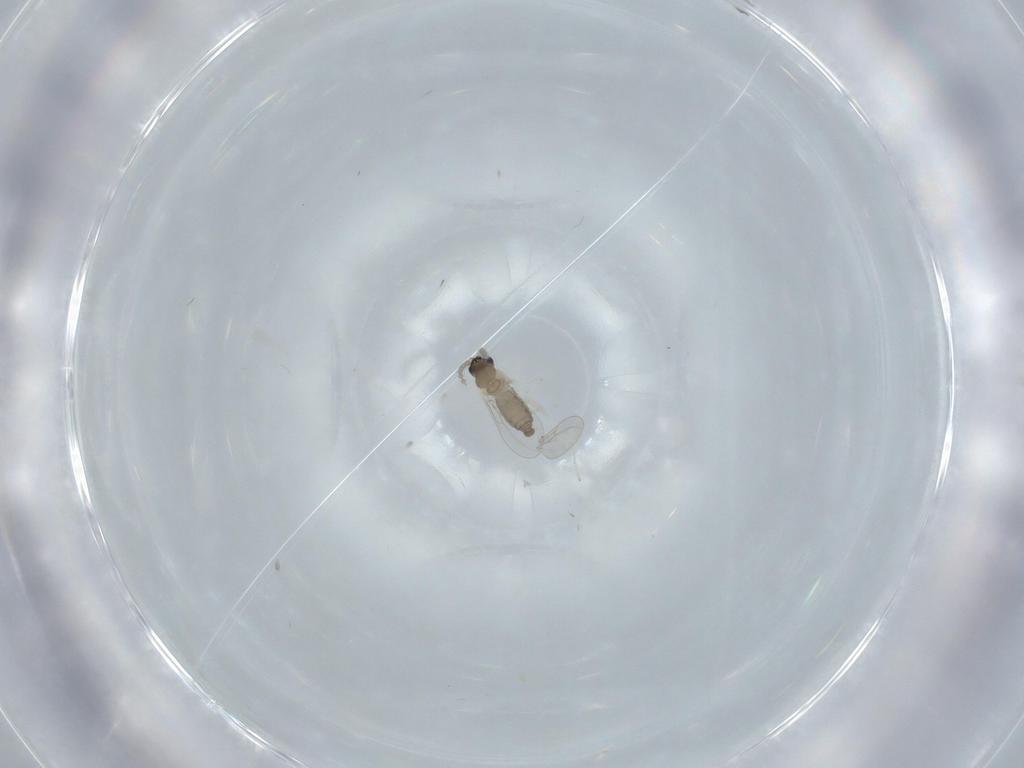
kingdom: Animalia
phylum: Arthropoda
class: Insecta
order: Diptera
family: Cecidomyiidae
